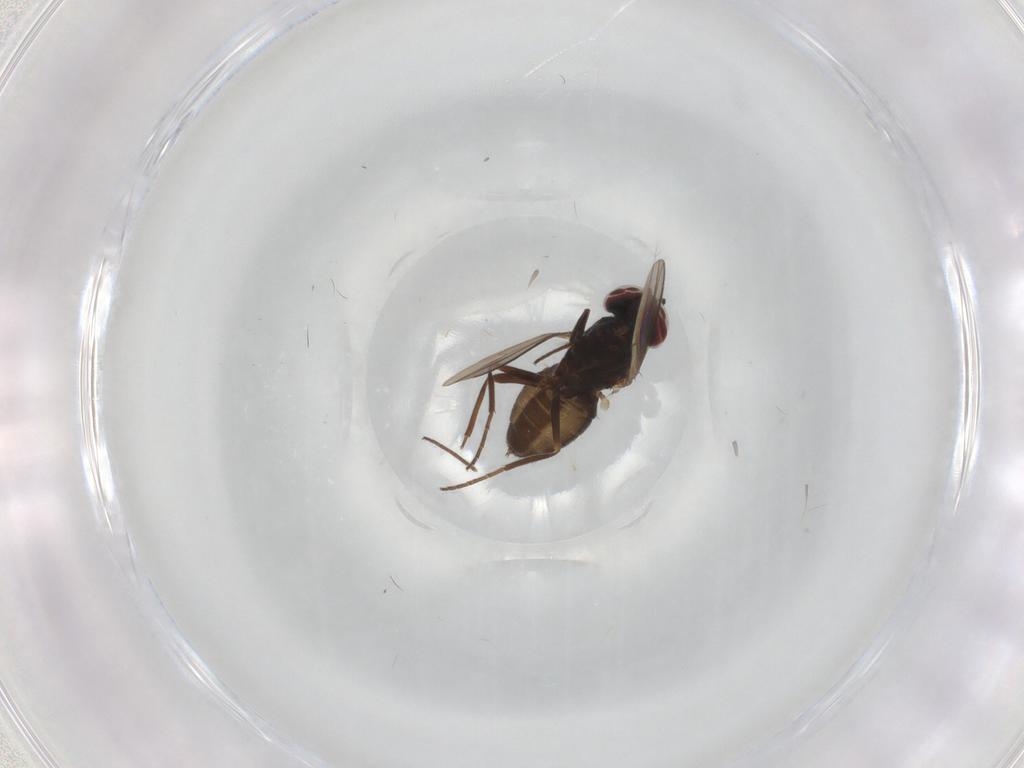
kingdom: Animalia
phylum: Arthropoda
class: Insecta
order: Diptera
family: Dolichopodidae
